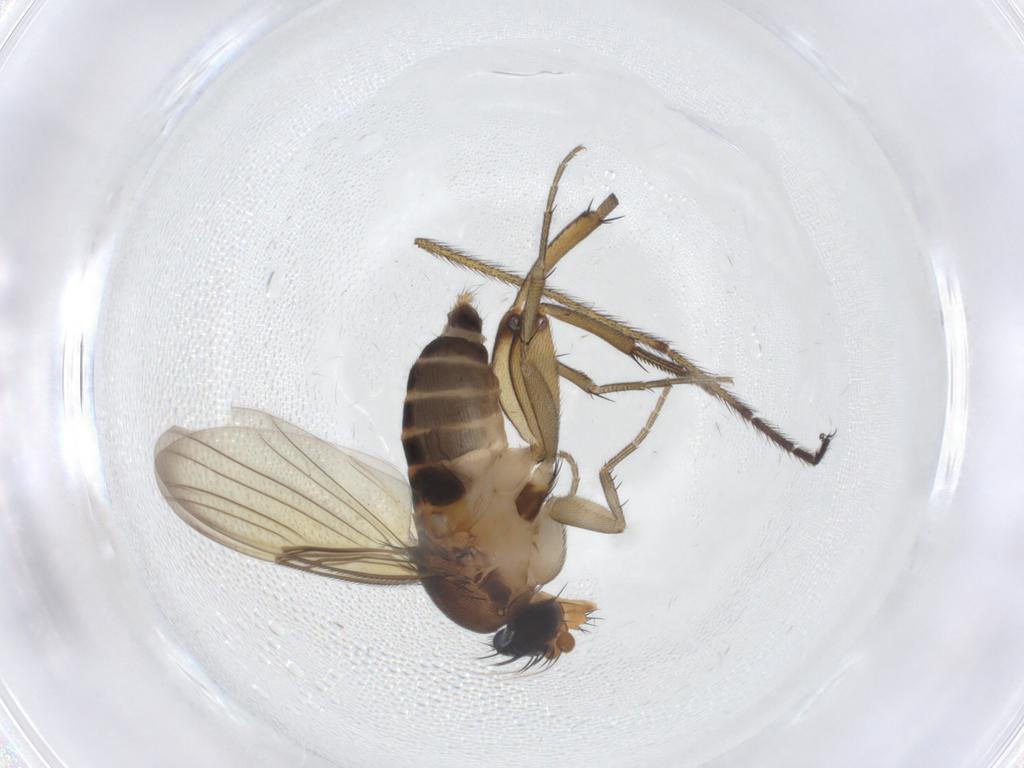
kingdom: Animalia
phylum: Arthropoda
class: Insecta
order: Diptera
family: Phoridae
